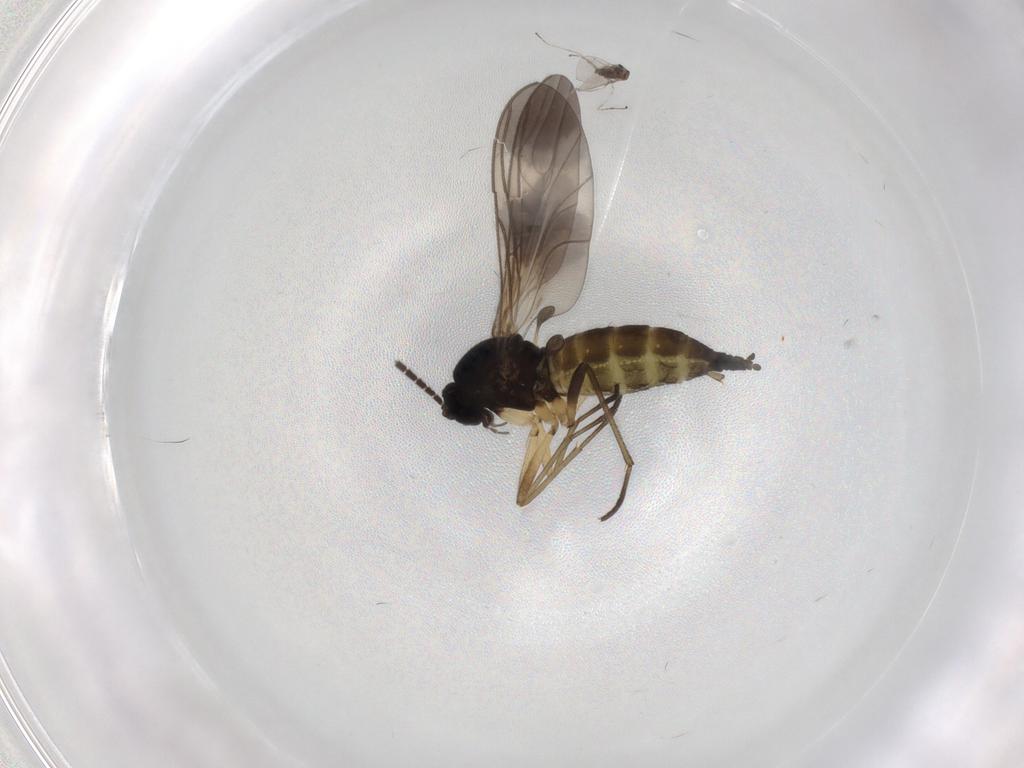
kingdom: Animalia
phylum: Arthropoda
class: Insecta
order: Diptera
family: Sciaridae
